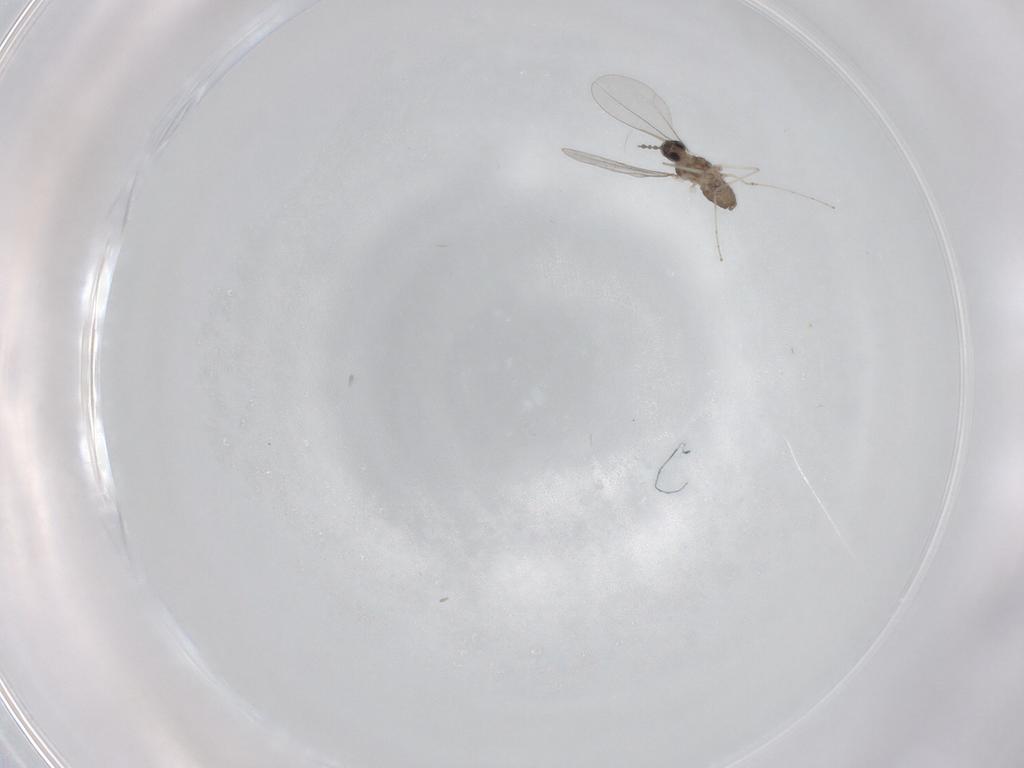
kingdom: Animalia
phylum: Arthropoda
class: Insecta
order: Diptera
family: Cecidomyiidae
